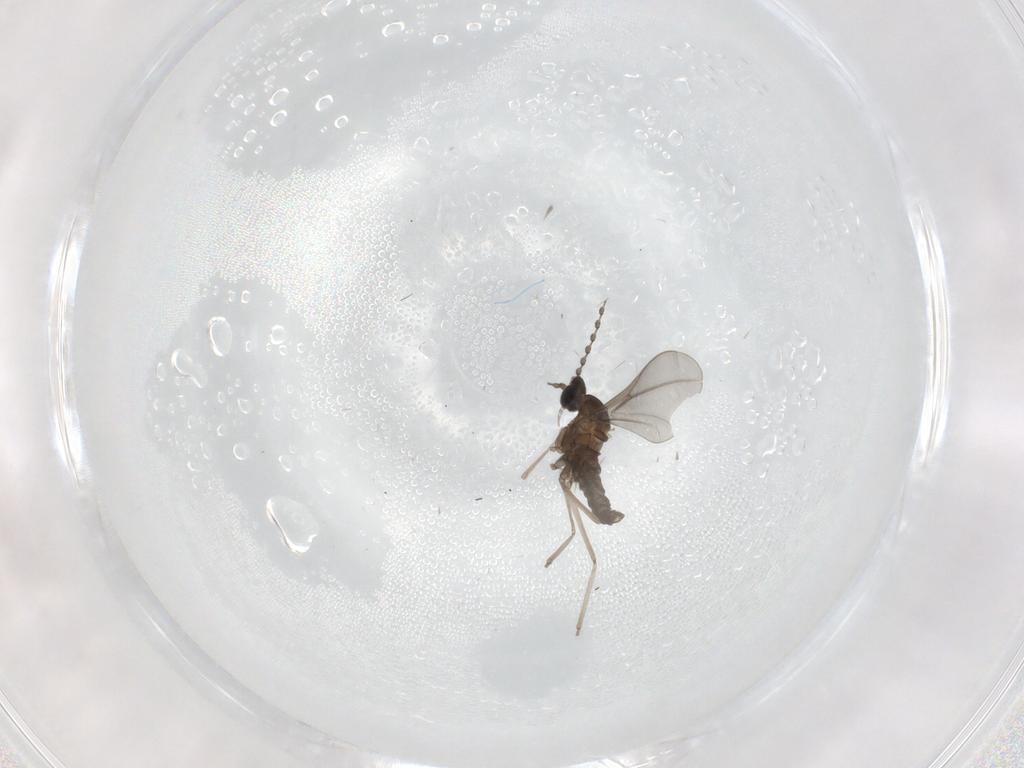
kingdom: Animalia
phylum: Arthropoda
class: Insecta
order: Diptera
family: Ceratopogonidae
